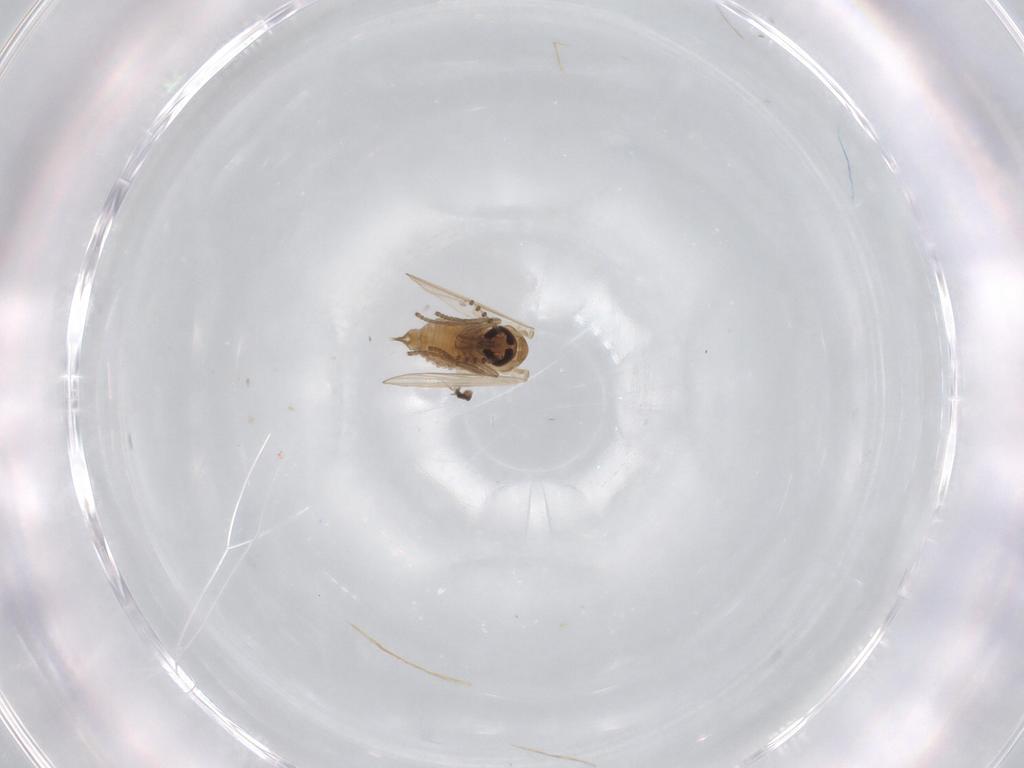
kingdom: Animalia
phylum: Arthropoda
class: Insecta
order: Diptera
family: Psychodidae
